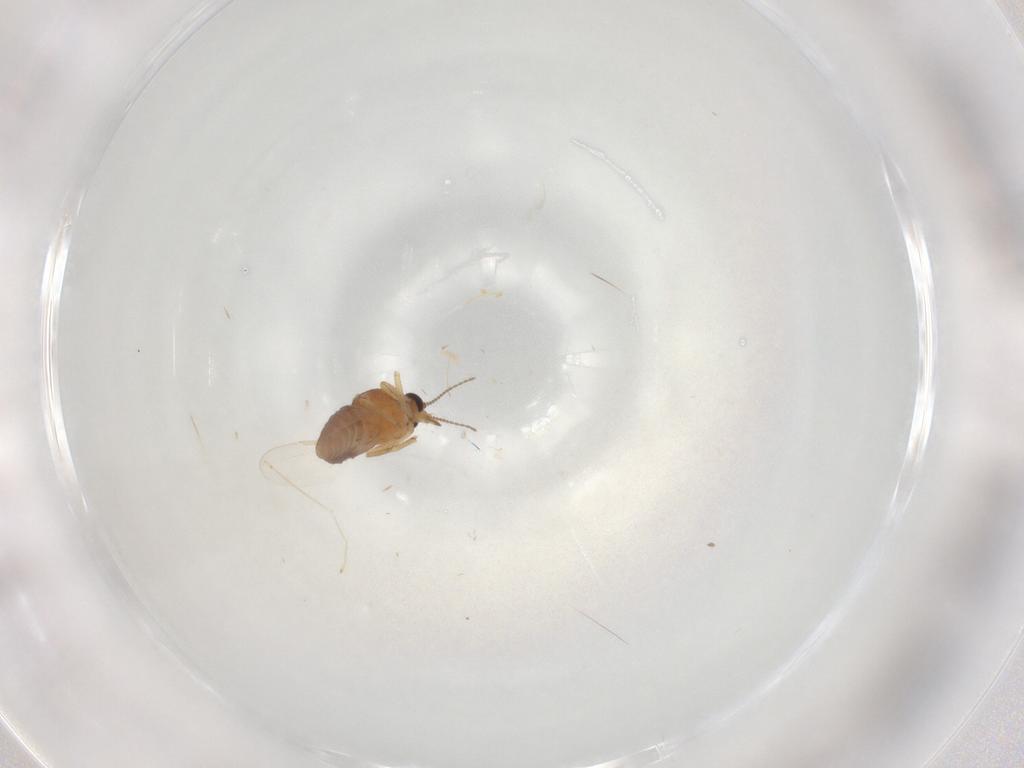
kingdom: Animalia
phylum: Arthropoda
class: Insecta
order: Diptera
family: Ceratopogonidae
